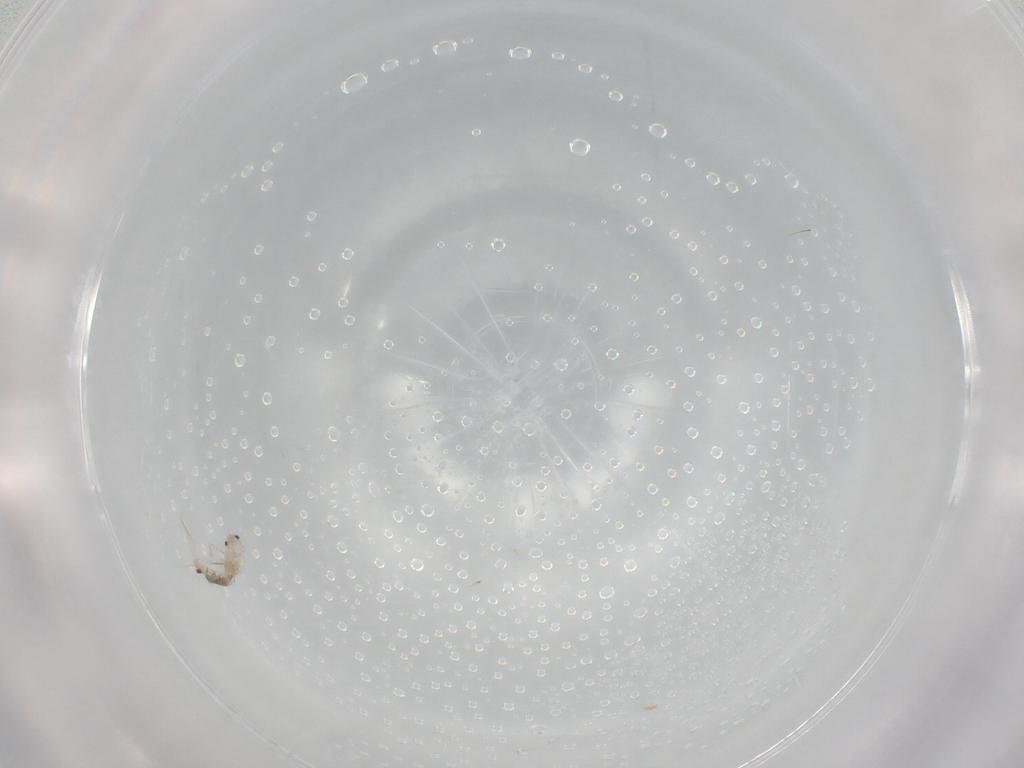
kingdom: Animalia
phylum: Arthropoda
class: Collembola
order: Entomobryomorpha
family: Entomobryidae
